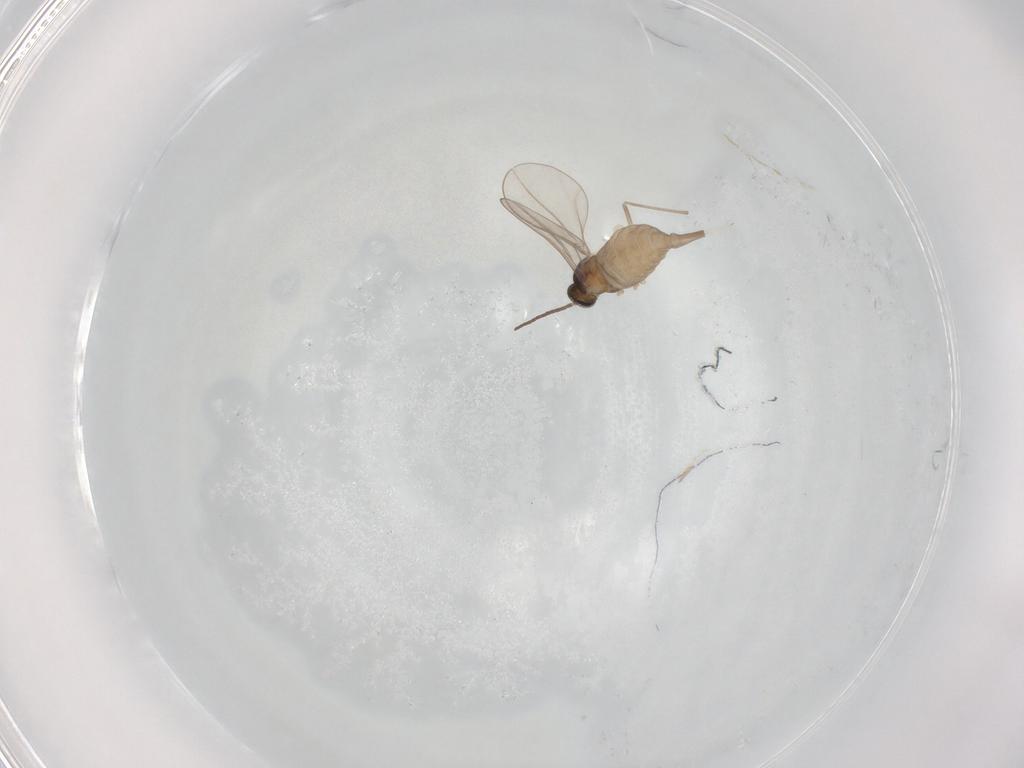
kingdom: Animalia
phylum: Arthropoda
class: Insecta
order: Diptera
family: Cecidomyiidae
